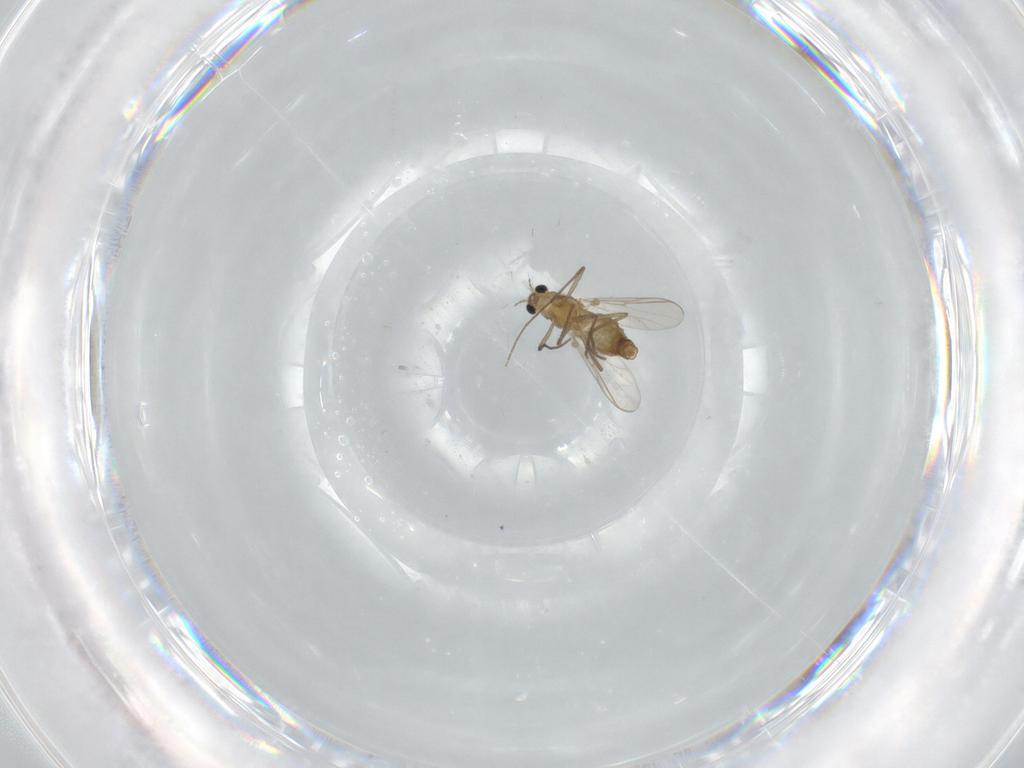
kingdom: Animalia
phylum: Arthropoda
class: Insecta
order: Diptera
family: Chironomidae
